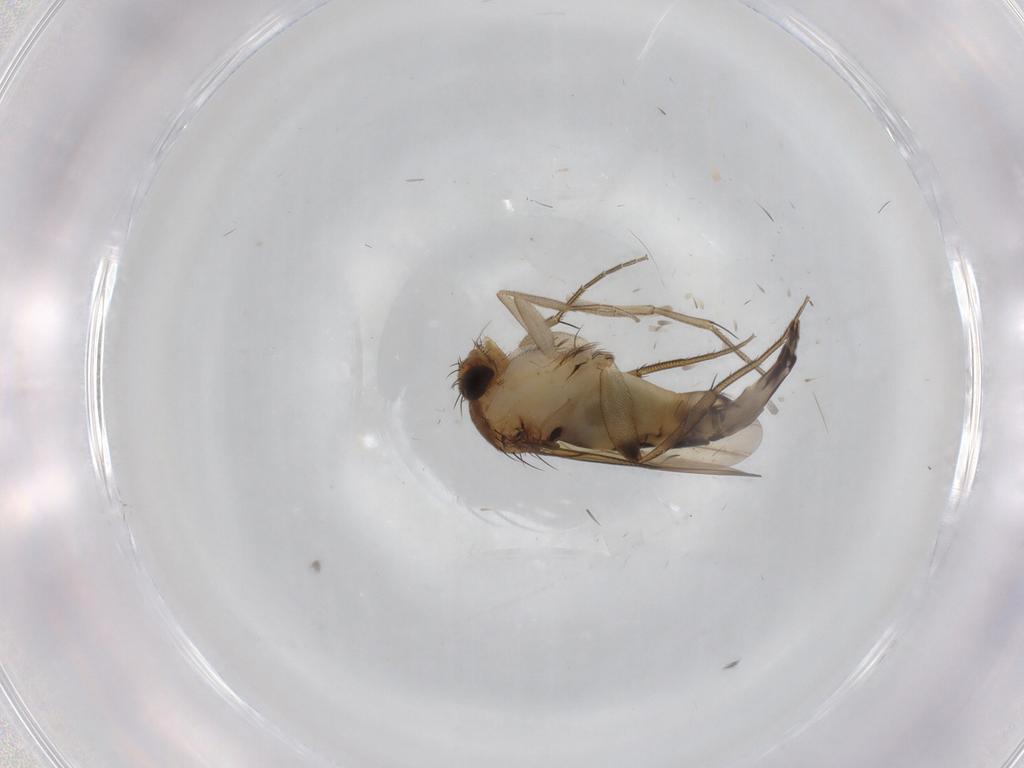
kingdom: Animalia
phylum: Arthropoda
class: Insecta
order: Diptera
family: Phoridae
